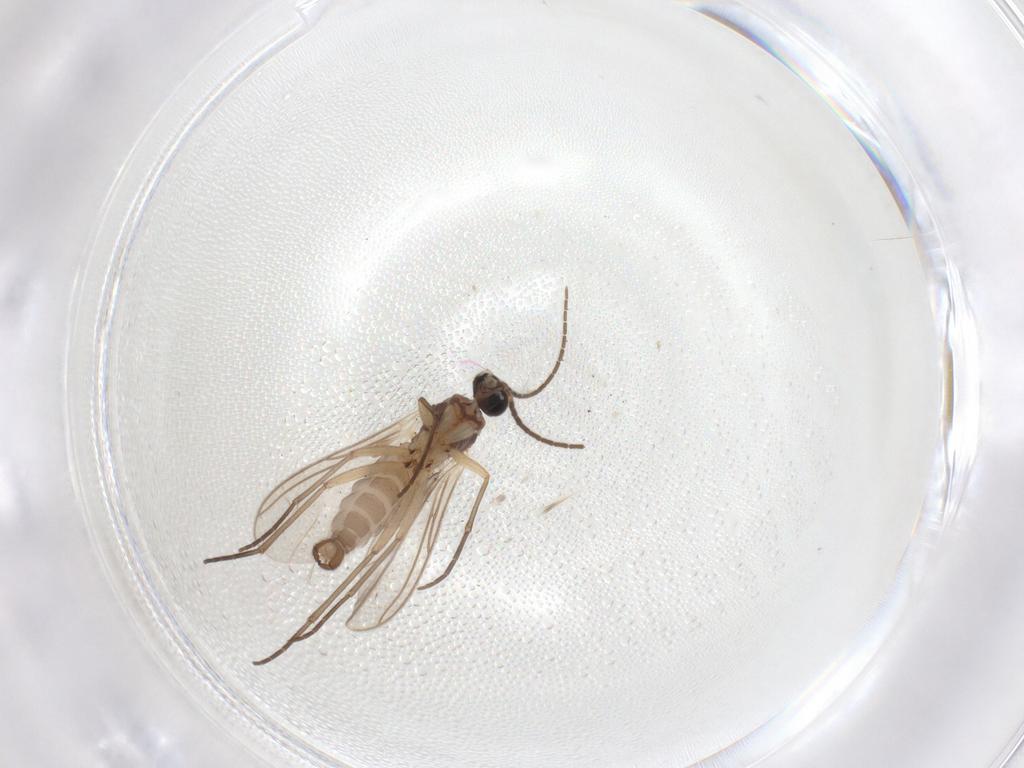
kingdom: Animalia
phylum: Arthropoda
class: Insecta
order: Diptera
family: Sciaridae
